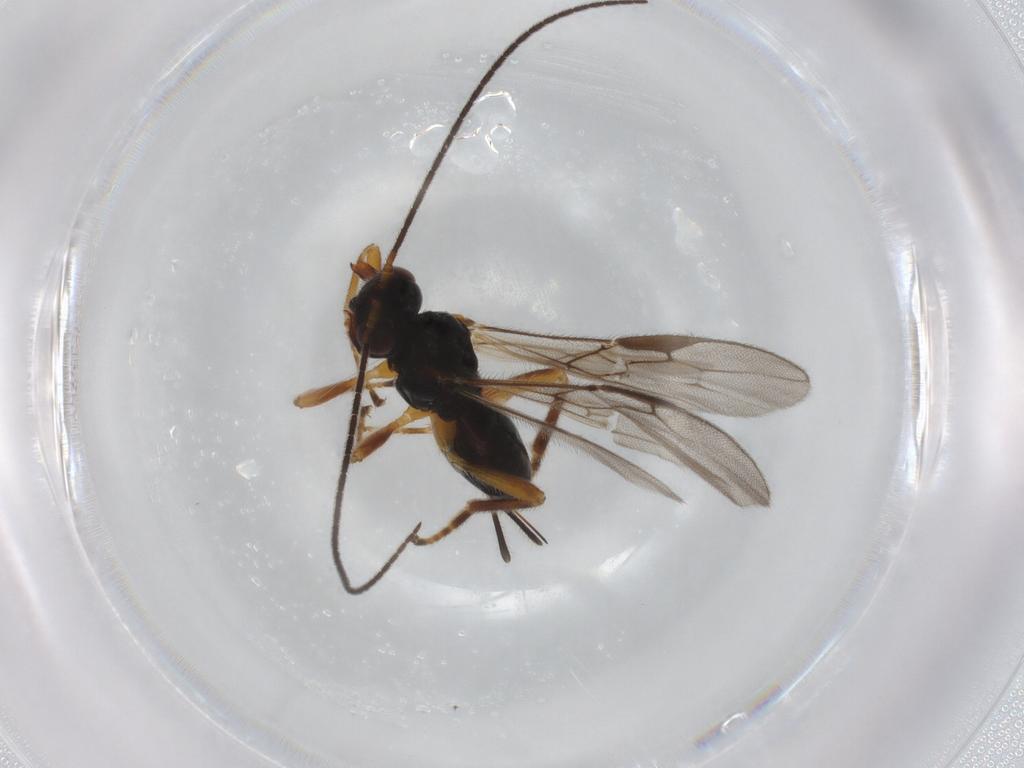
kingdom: Animalia
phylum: Arthropoda
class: Insecta
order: Hymenoptera
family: Braconidae
